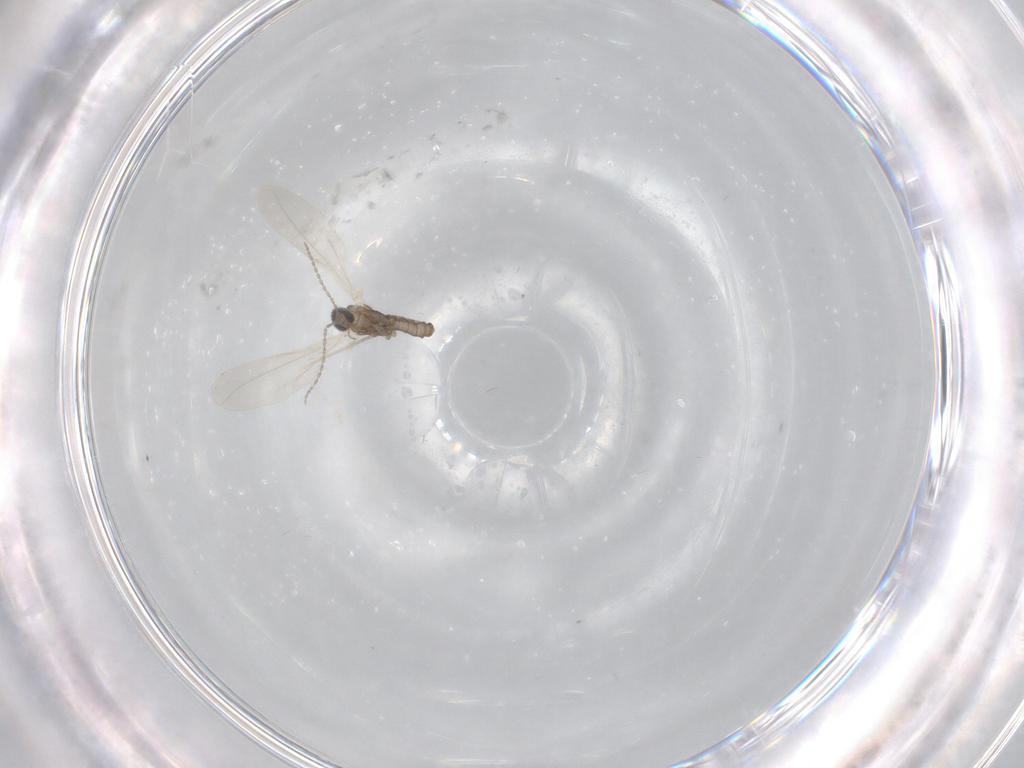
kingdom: Animalia
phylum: Arthropoda
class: Insecta
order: Diptera
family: Cecidomyiidae
